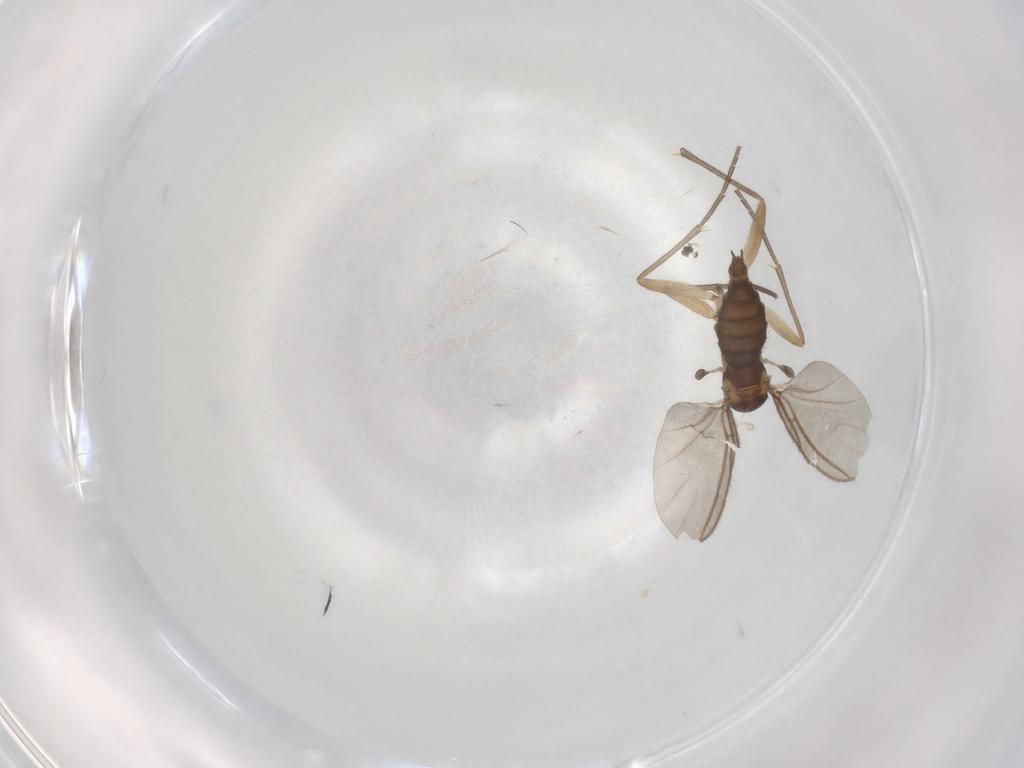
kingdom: Animalia
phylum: Arthropoda
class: Insecta
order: Diptera
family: Sciaridae
